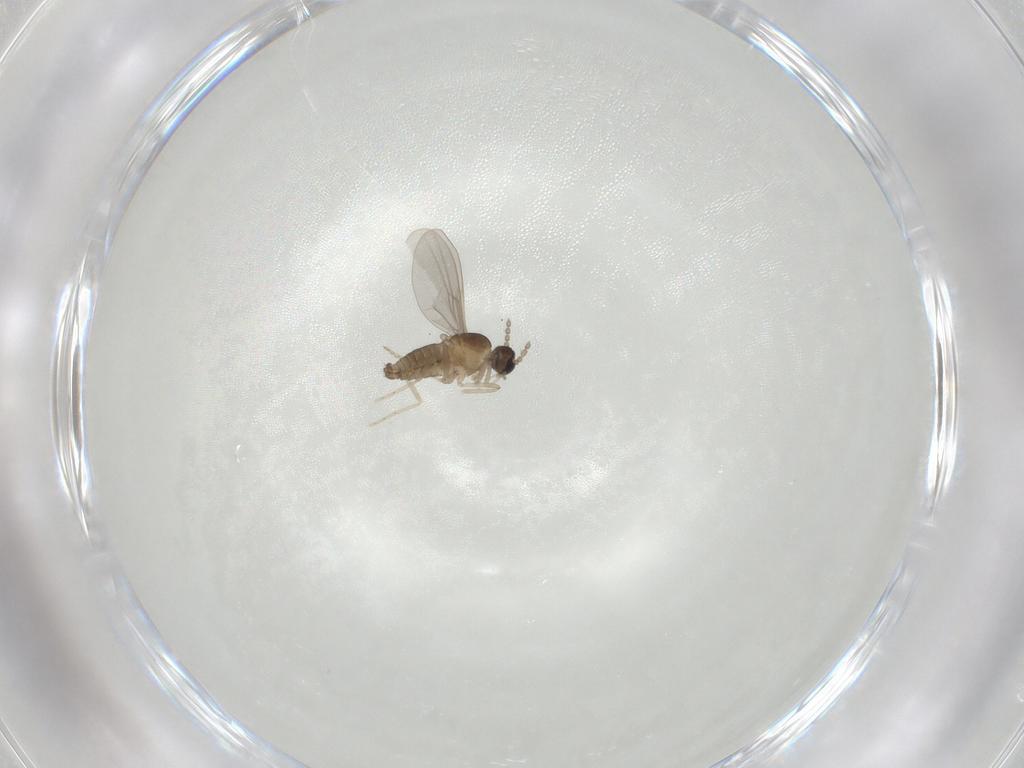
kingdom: Animalia
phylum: Arthropoda
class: Insecta
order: Diptera
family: Cecidomyiidae
